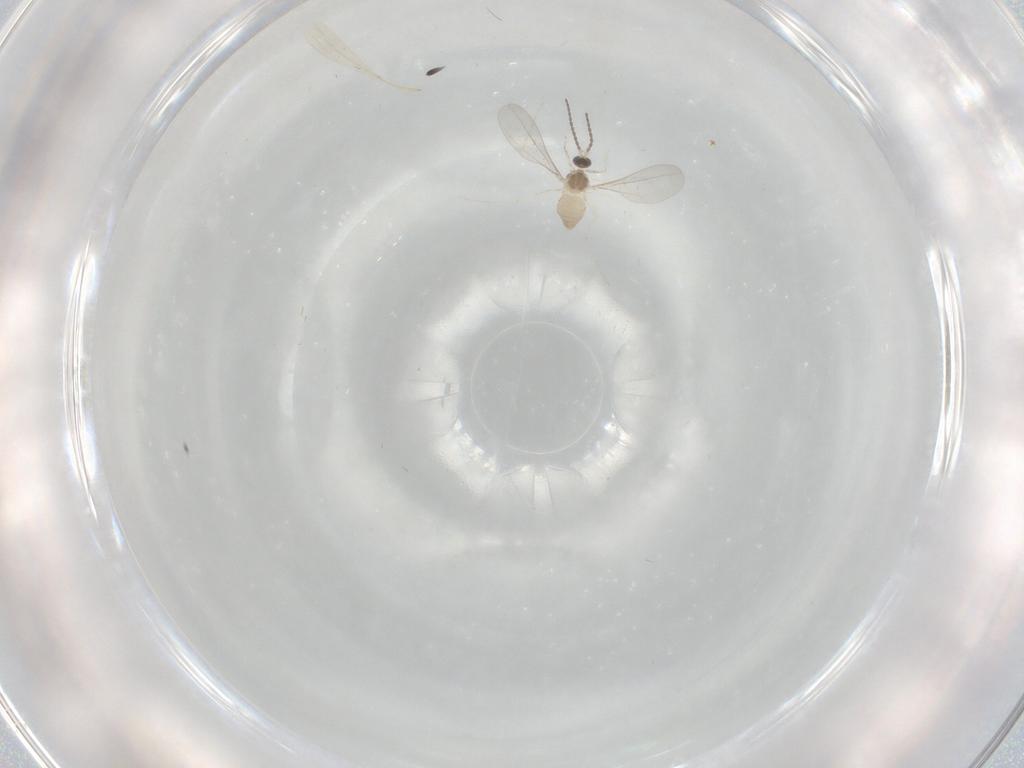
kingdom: Animalia
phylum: Arthropoda
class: Insecta
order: Diptera
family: Cecidomyiidae
